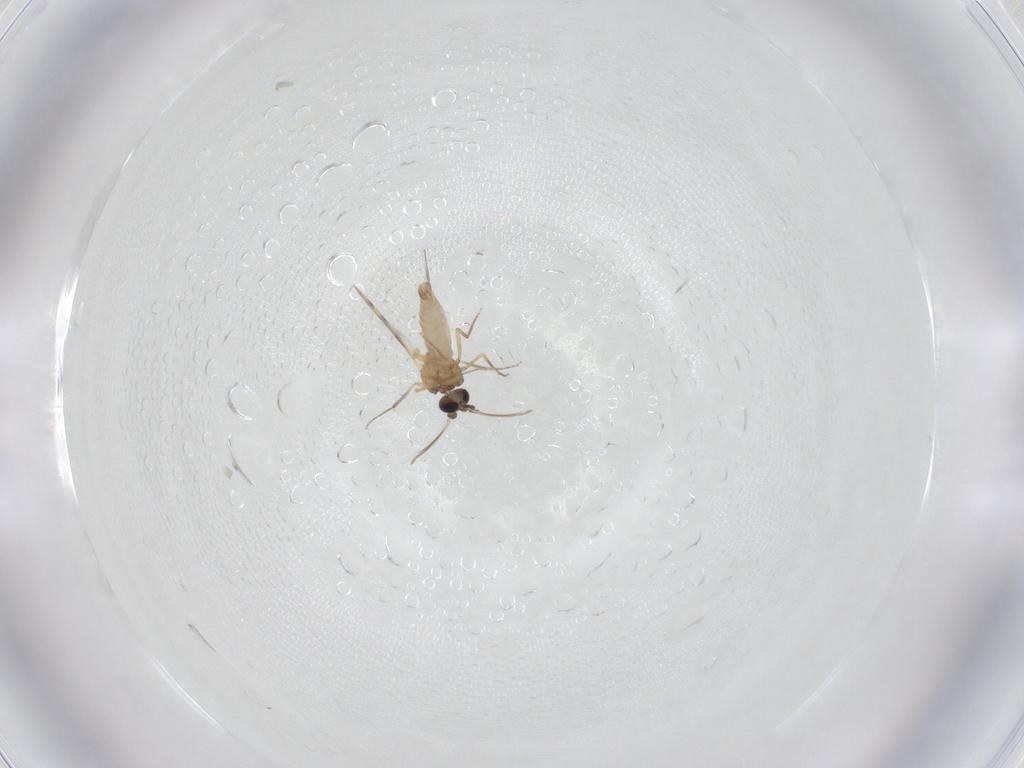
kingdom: Animalia
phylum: Arthropoda
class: Insecta
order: Diptera
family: Ceratopogonidae
